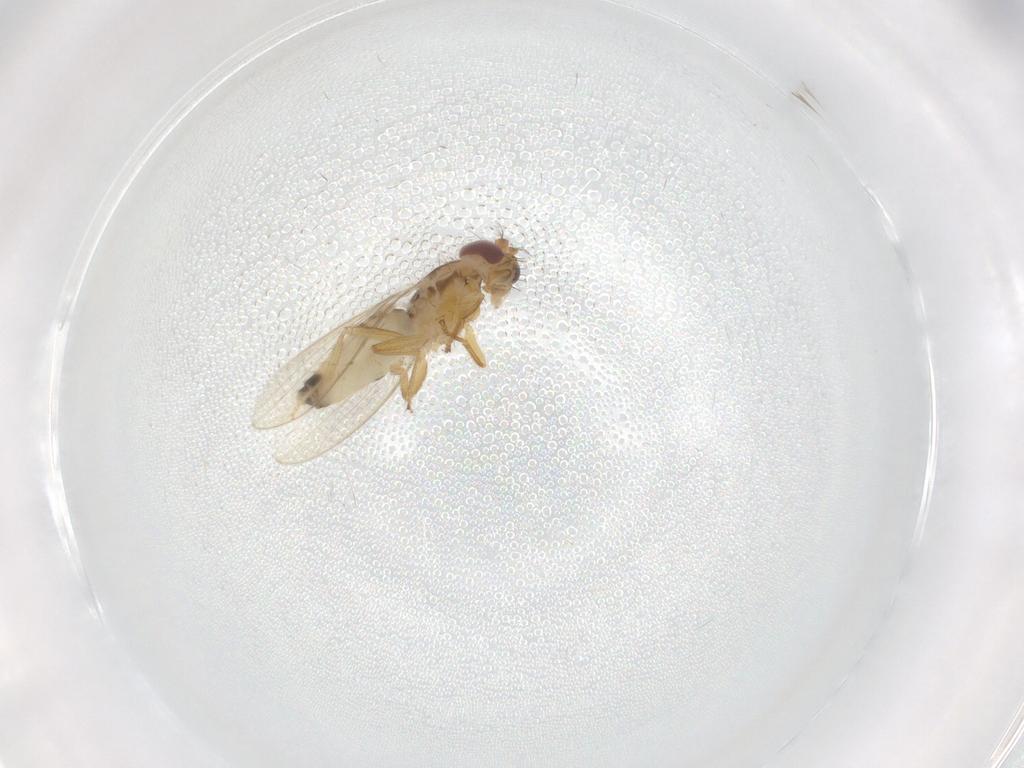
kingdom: Animalia
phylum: Arthropoda
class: Insecta
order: Diptera
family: Periscelididae
